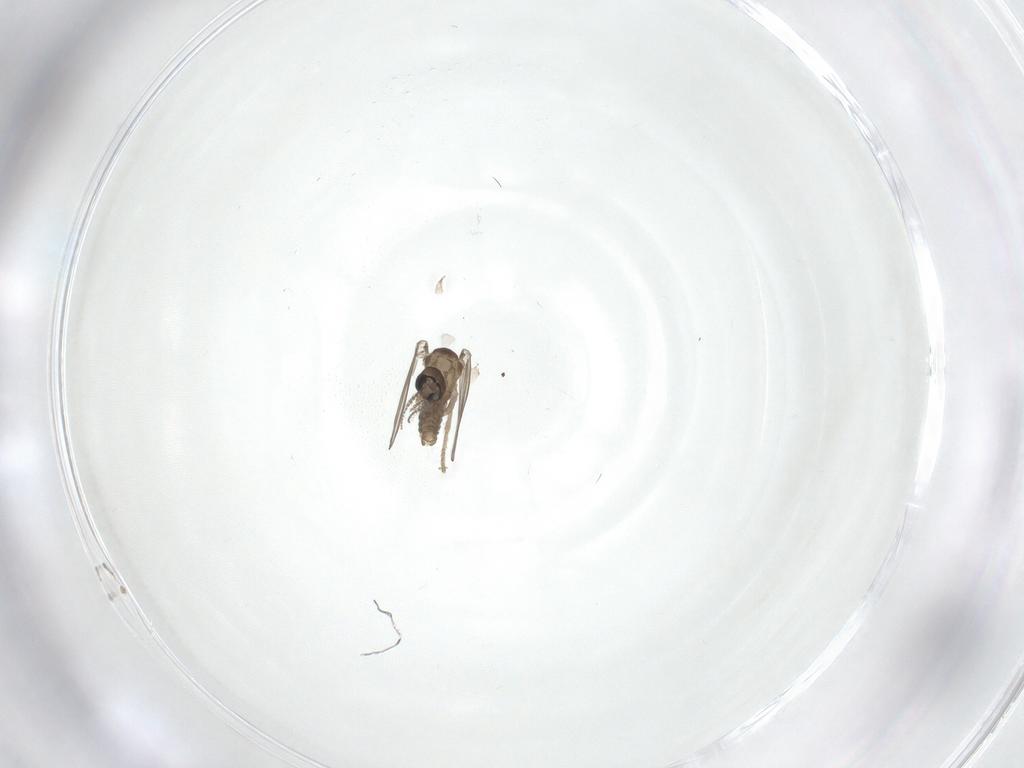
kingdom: Animalia
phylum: Arthropoda
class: Insecta
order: Diptera
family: Psychodidae
